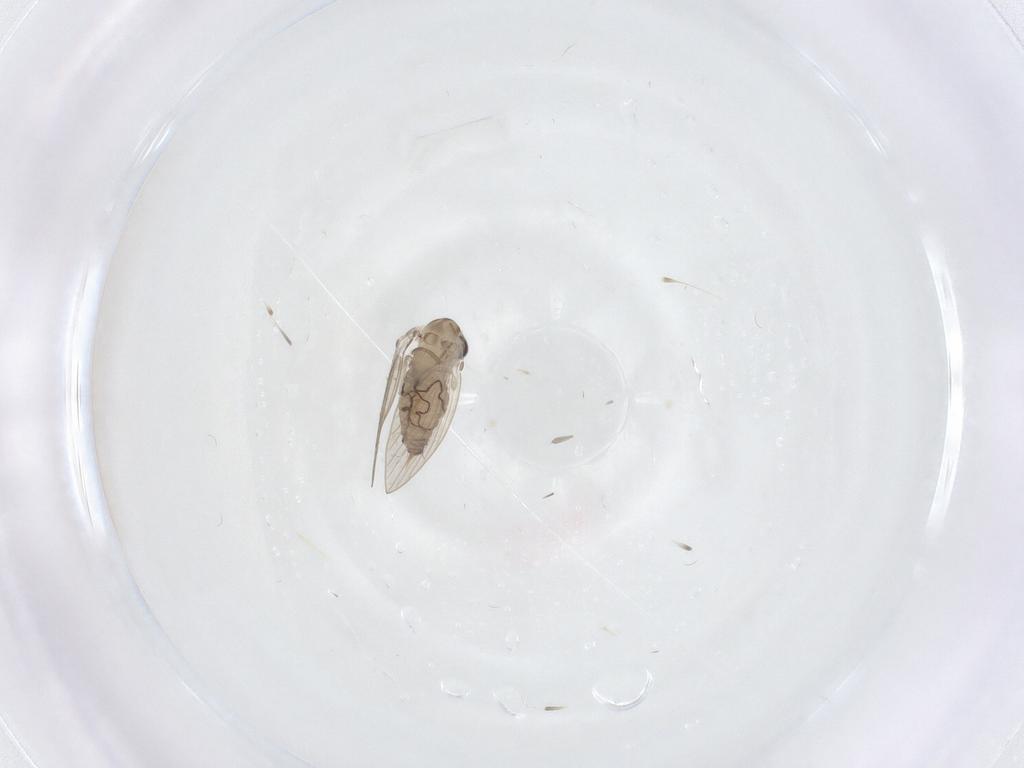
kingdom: Animalia
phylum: Arthropoda
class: Insecta
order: Diptera
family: Psychodidae
